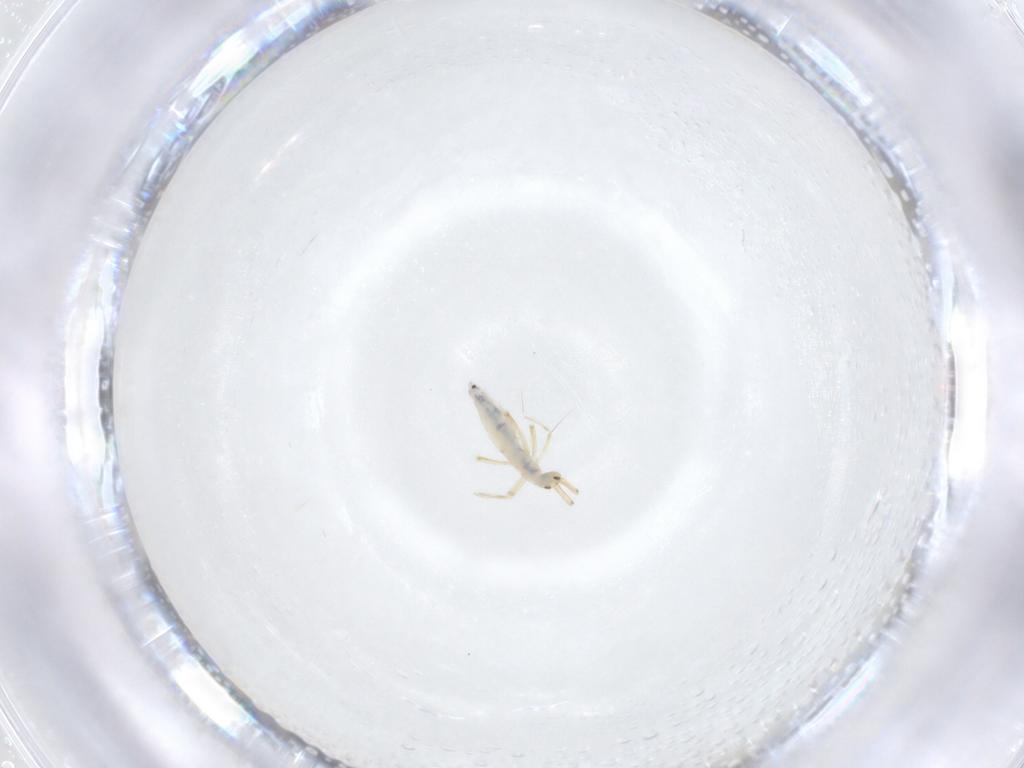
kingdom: Animalia
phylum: Arthropoda
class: Collembola
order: Entomobryomorpha
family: Entomobryidae
